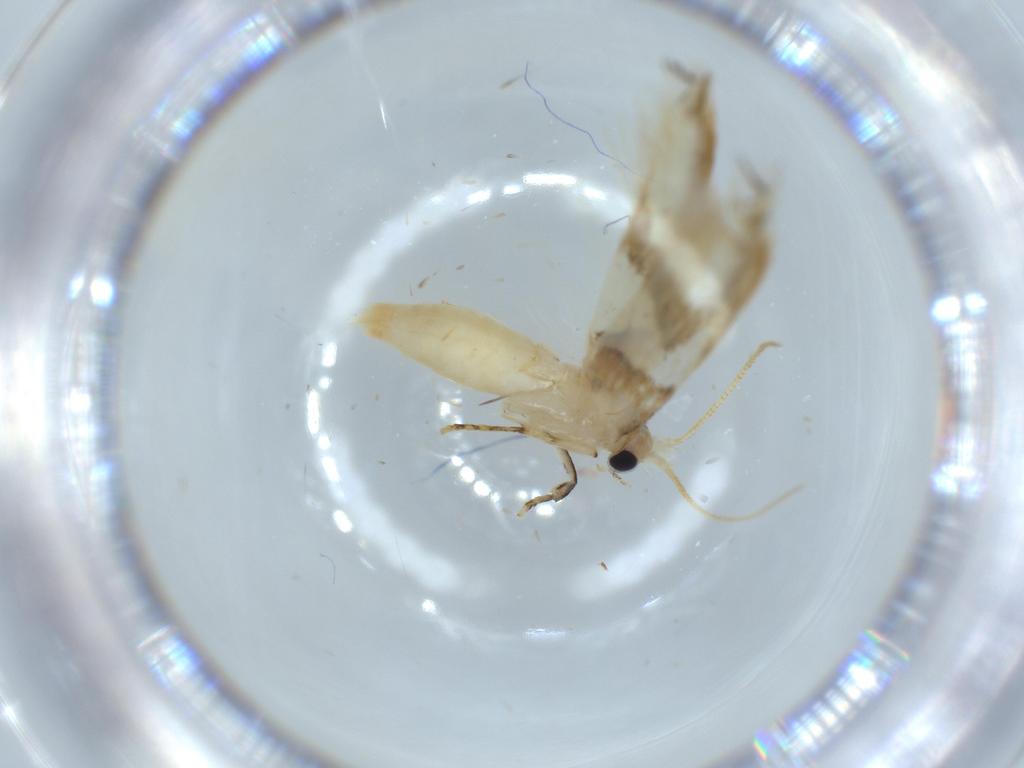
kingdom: Animalia
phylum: Arthropoda
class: Insecta
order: Lepidoptera
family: Tineidae
